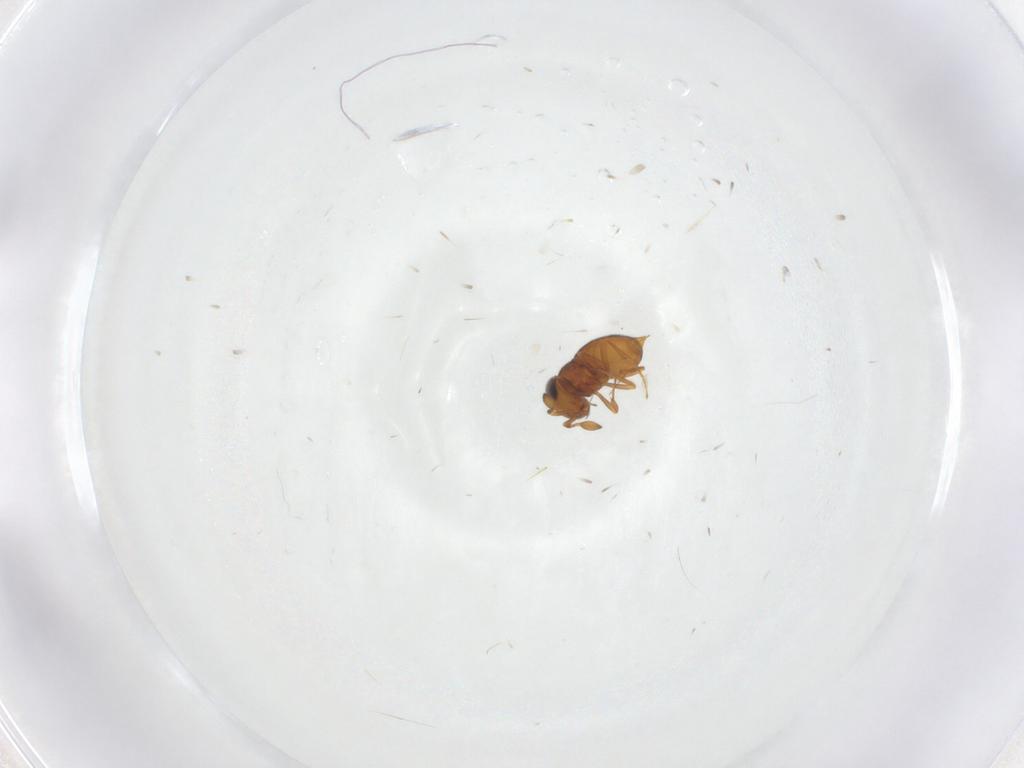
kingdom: Animalia
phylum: Arthropoda
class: Insecta
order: Hymenoptera
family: Scelionidae
